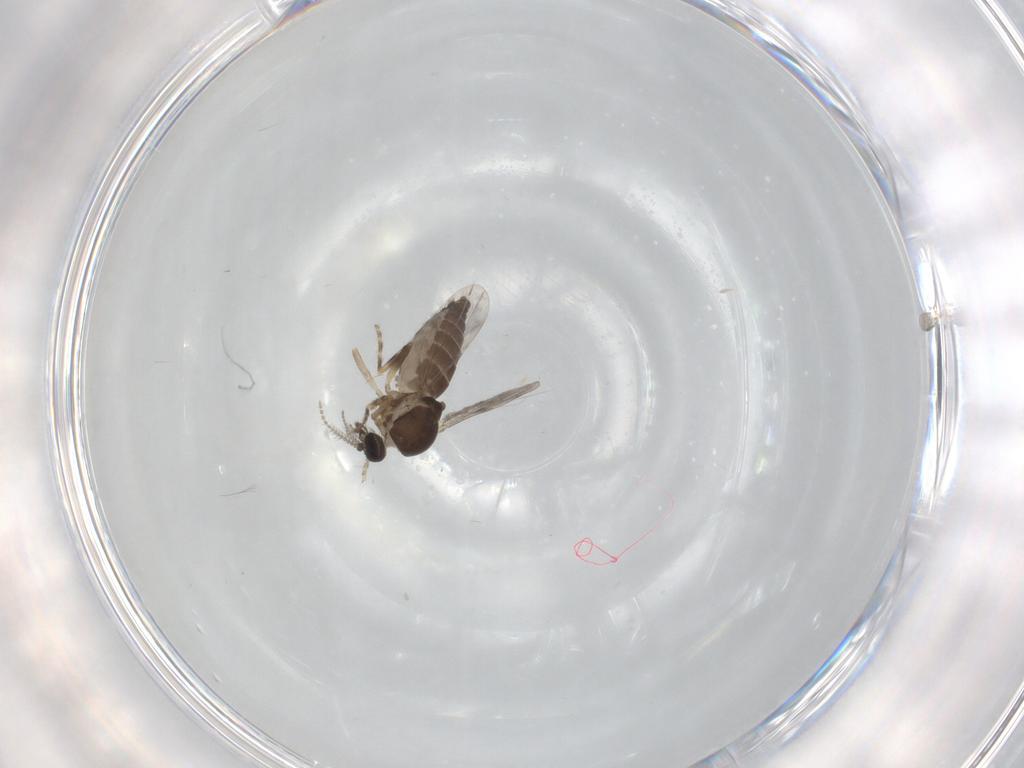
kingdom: Animalia
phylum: Arthropoda
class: Insecta
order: Diptera
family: Ceratopogonidae
